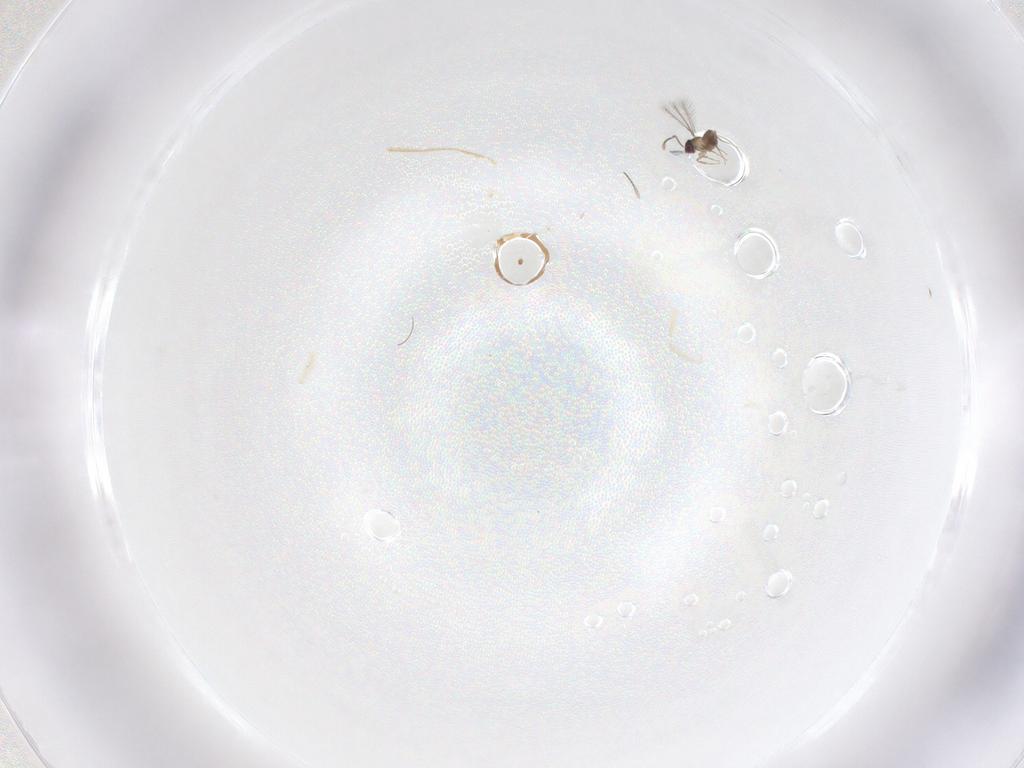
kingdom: Animalia
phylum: Arthropoda
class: Insecta
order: Hymenoptera
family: Mymaridae
